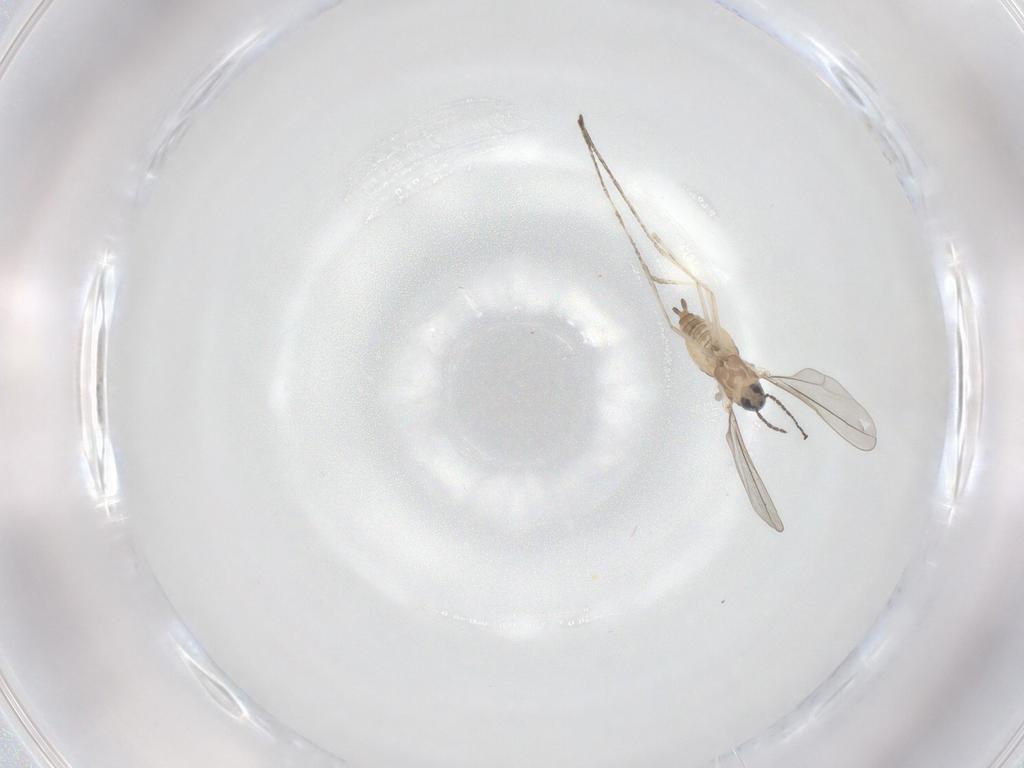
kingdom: Animalia
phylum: Arthropoda
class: Insecta
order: Diptera
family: Cecidomyiidae
